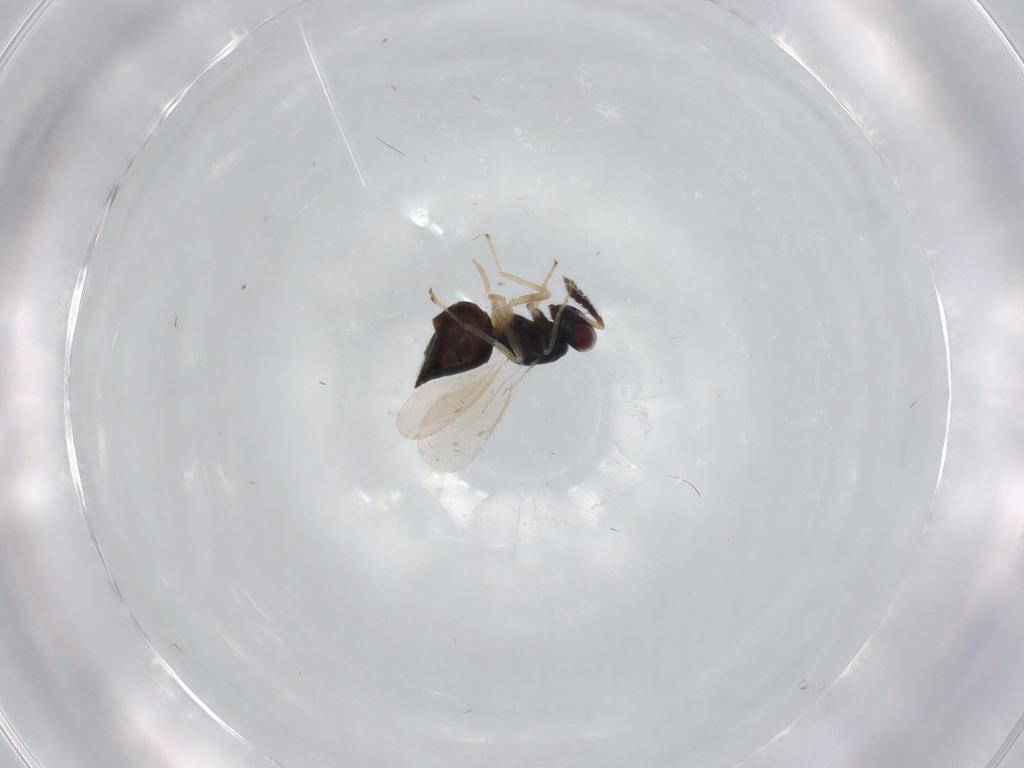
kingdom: Animalia
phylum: Arthropoda
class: Insecta
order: Hymenoptera
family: Eulophidae
